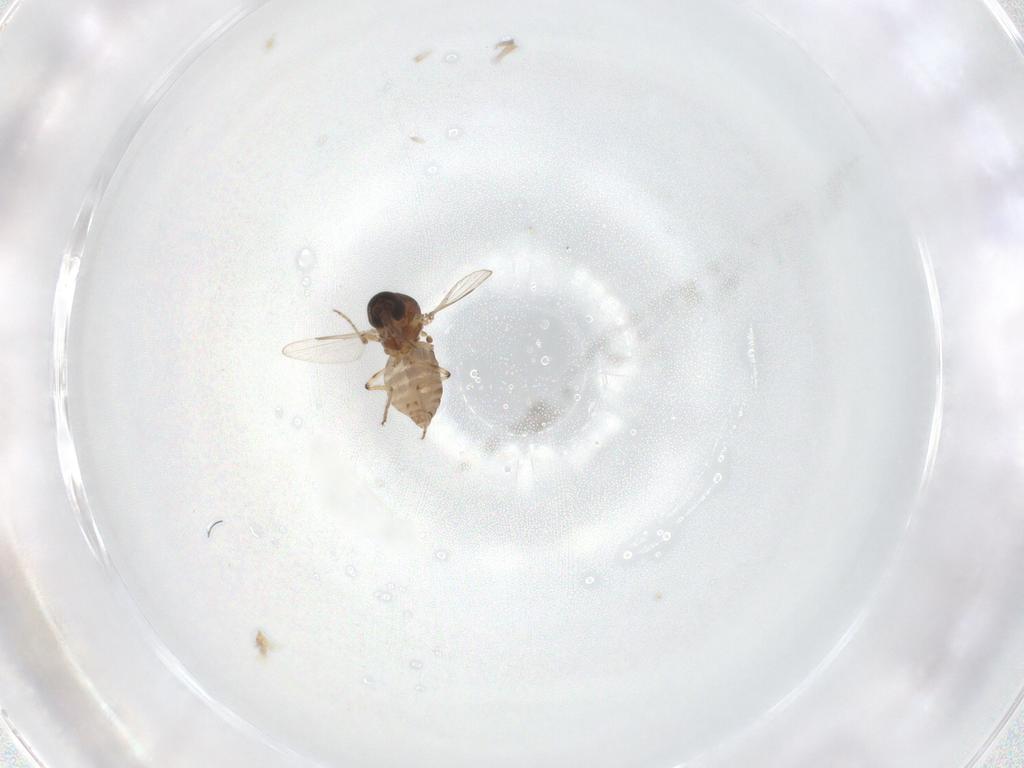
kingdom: Animalia
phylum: Arthropoda
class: Insecta
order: Diptera
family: Ceratopogonidae
